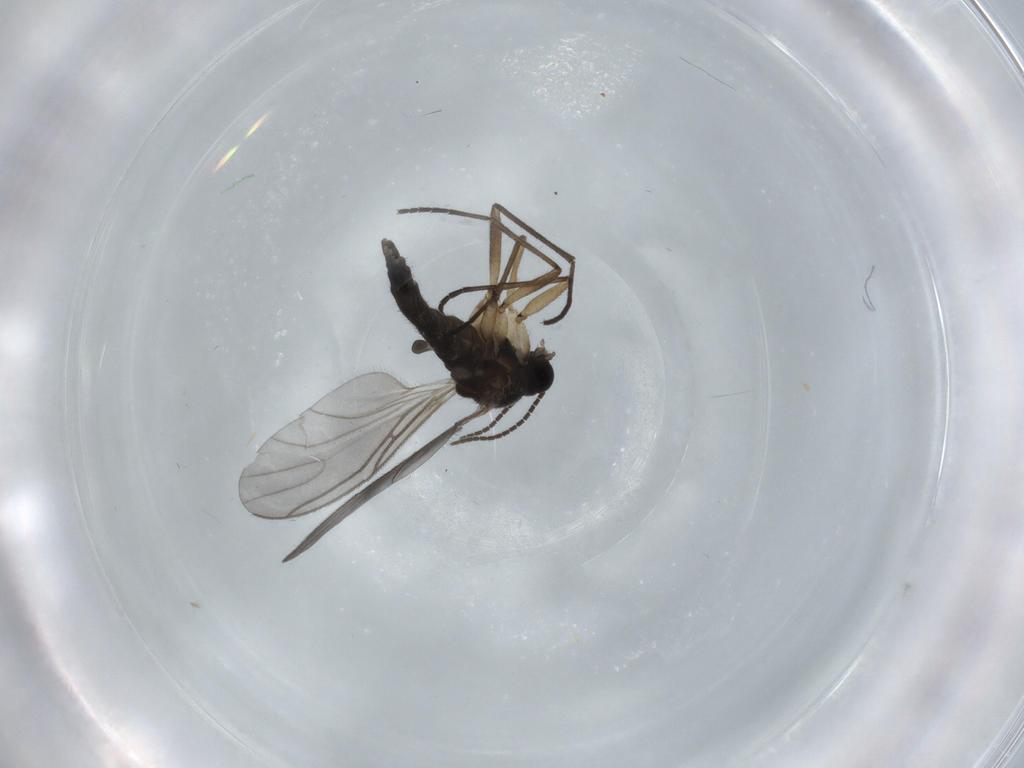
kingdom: Animalia
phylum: Arthropoda
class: Insecta
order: Diptera
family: Sciaridae
